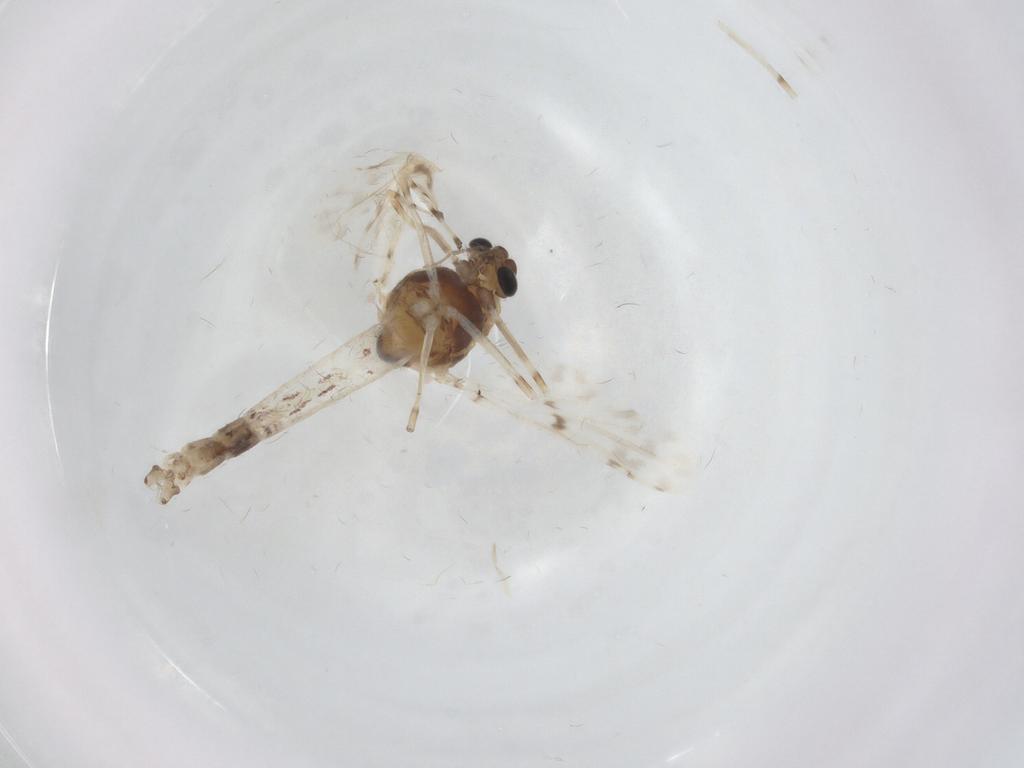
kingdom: Animalia
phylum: Arthropoda
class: Insecta
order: Diptera
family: Chironomidae
